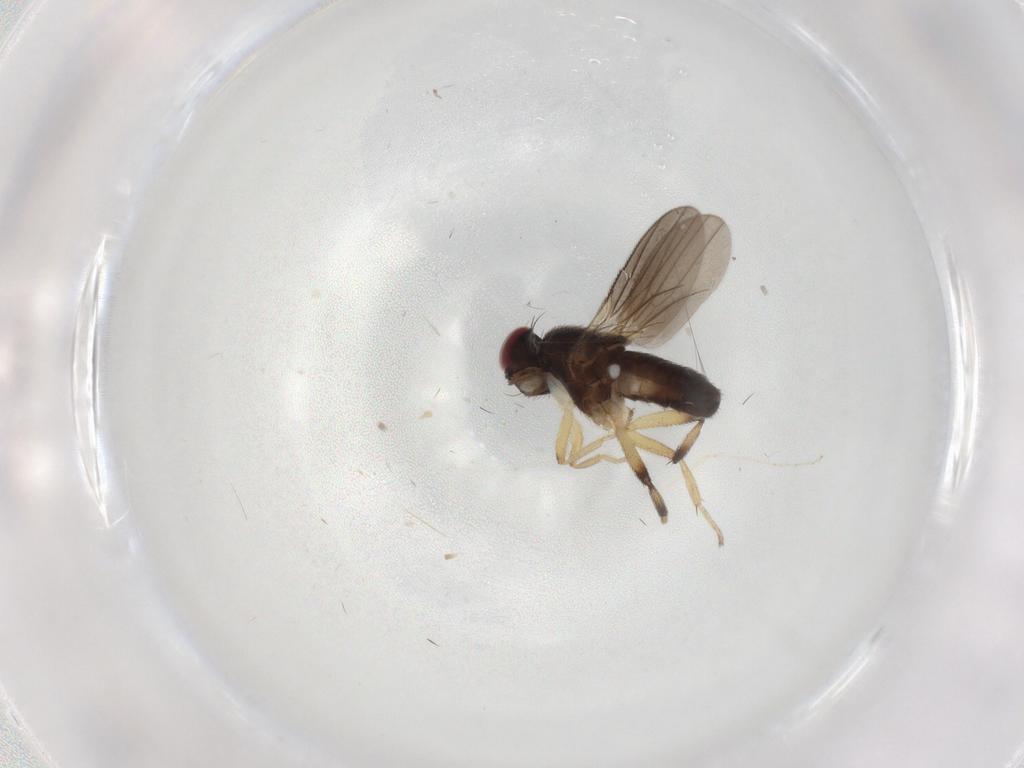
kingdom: Animalia
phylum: Arthropoda
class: Insecta
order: Diptera
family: Clusiidae
